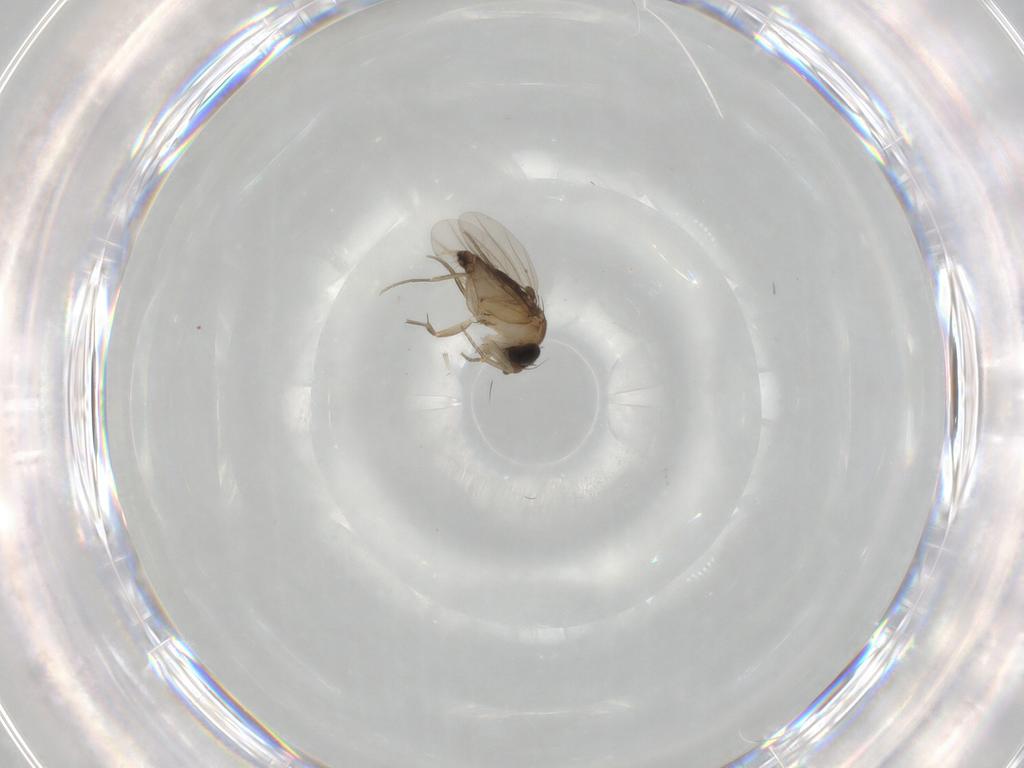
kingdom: Animalia
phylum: Arthropoda
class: Insecta
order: Diptera
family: Phoridae
